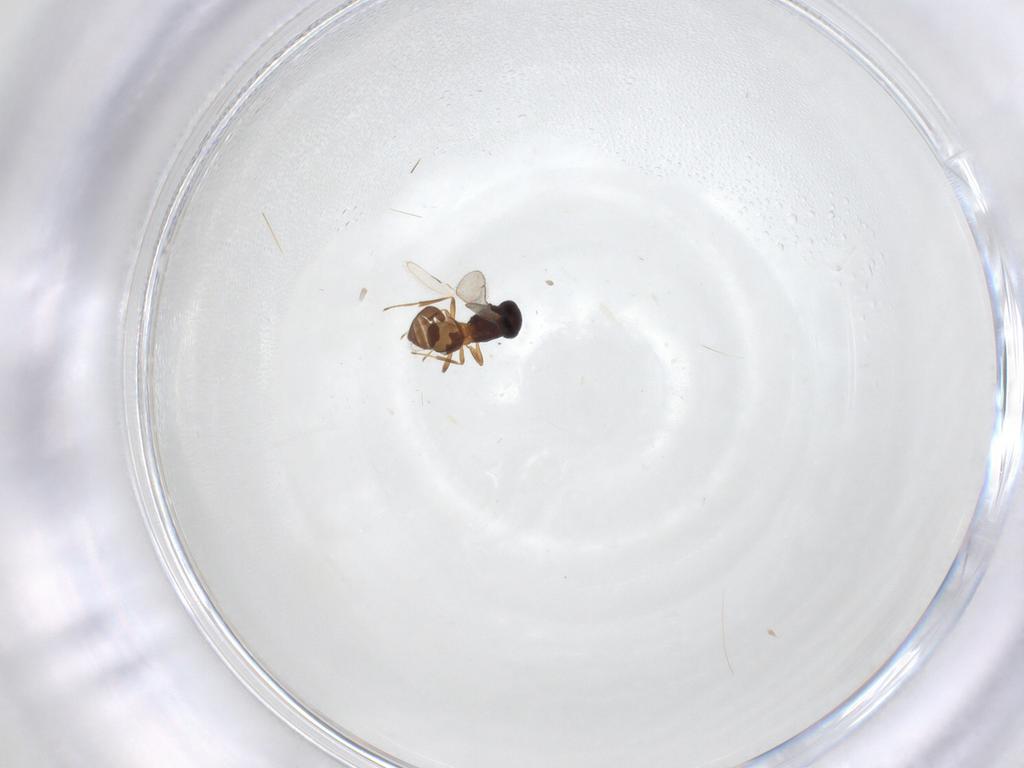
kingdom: Animalia
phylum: Arthropoda
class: Insecta
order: Hymenoptera
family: Scelionidae
